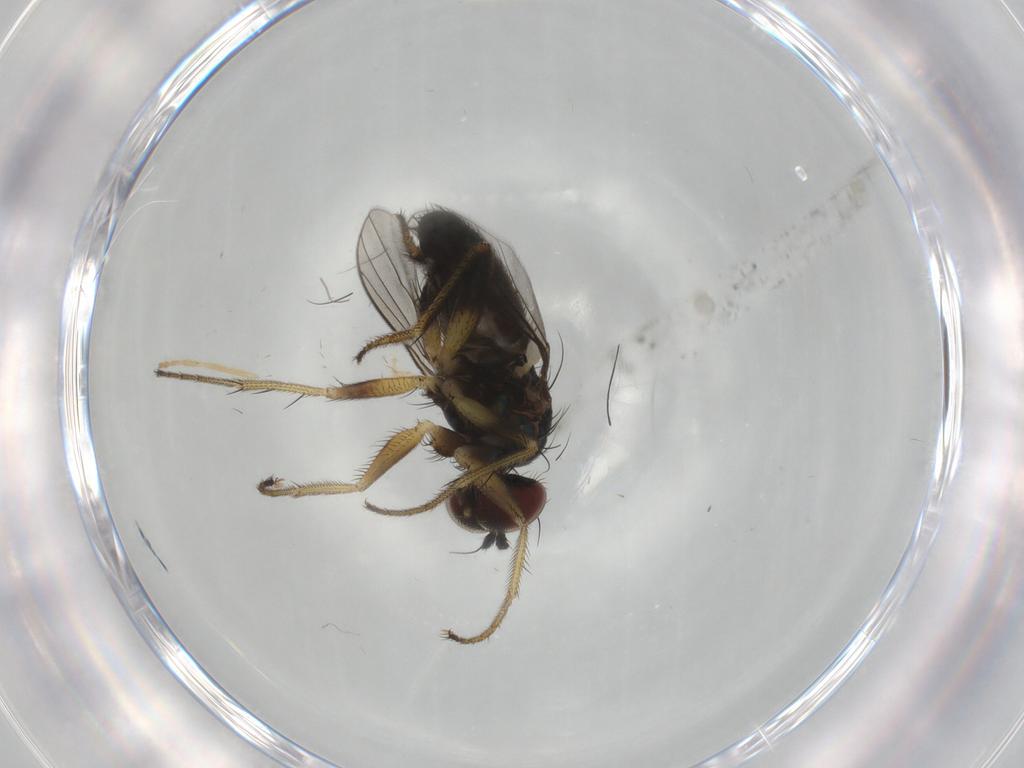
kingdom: Animalia
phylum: Arthropoda
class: Insecta
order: Diptera
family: Dolichopodidae
